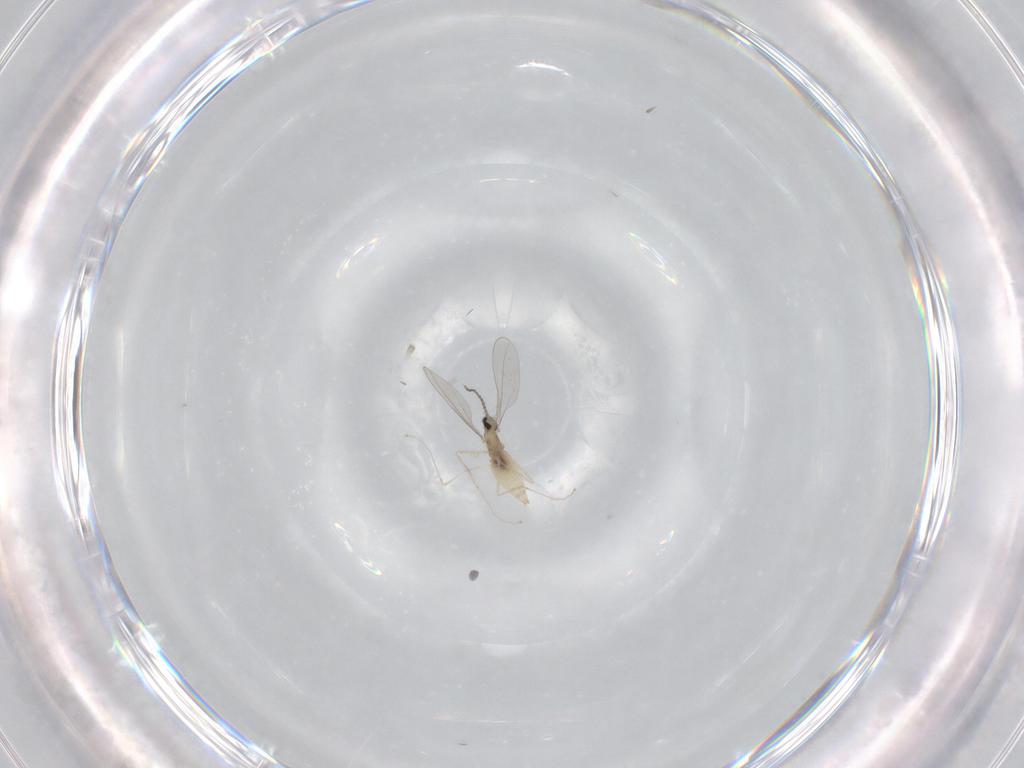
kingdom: Animalia
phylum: Arthropoda
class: Insecta
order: Diptera
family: Cecidomyiidae
